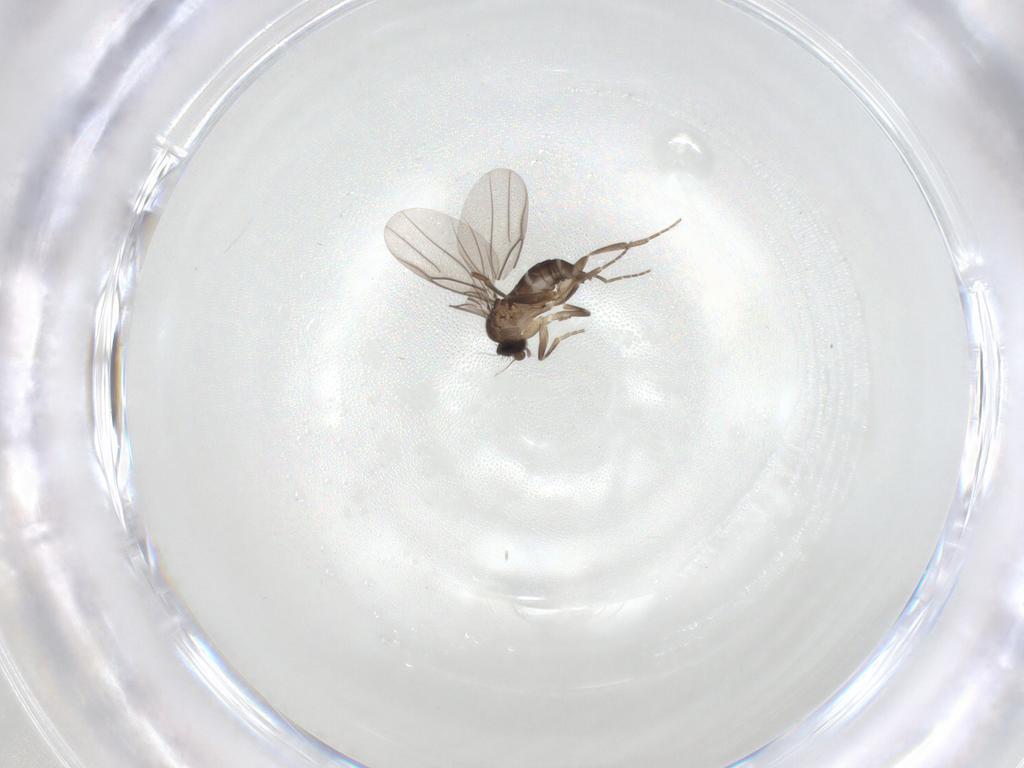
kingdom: Animalia
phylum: Arthropoda
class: Insecta
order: Diptera
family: Phoridae
